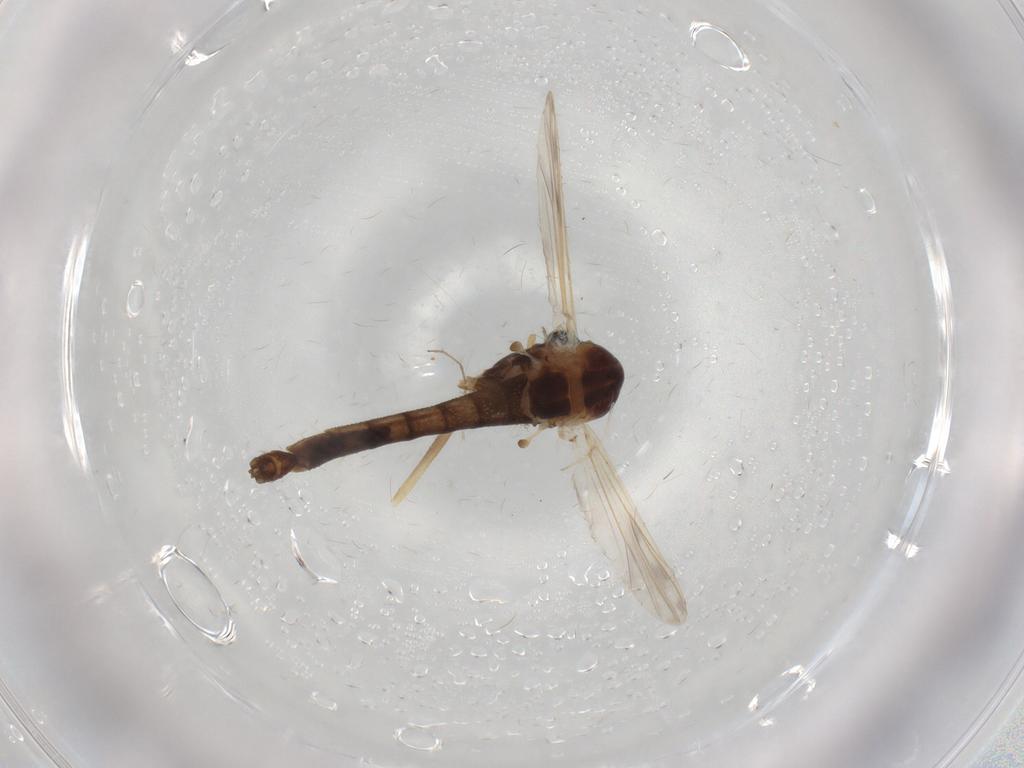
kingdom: Animalia
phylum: Arthropoda
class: Insecta
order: Diptera
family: Chironomidae
